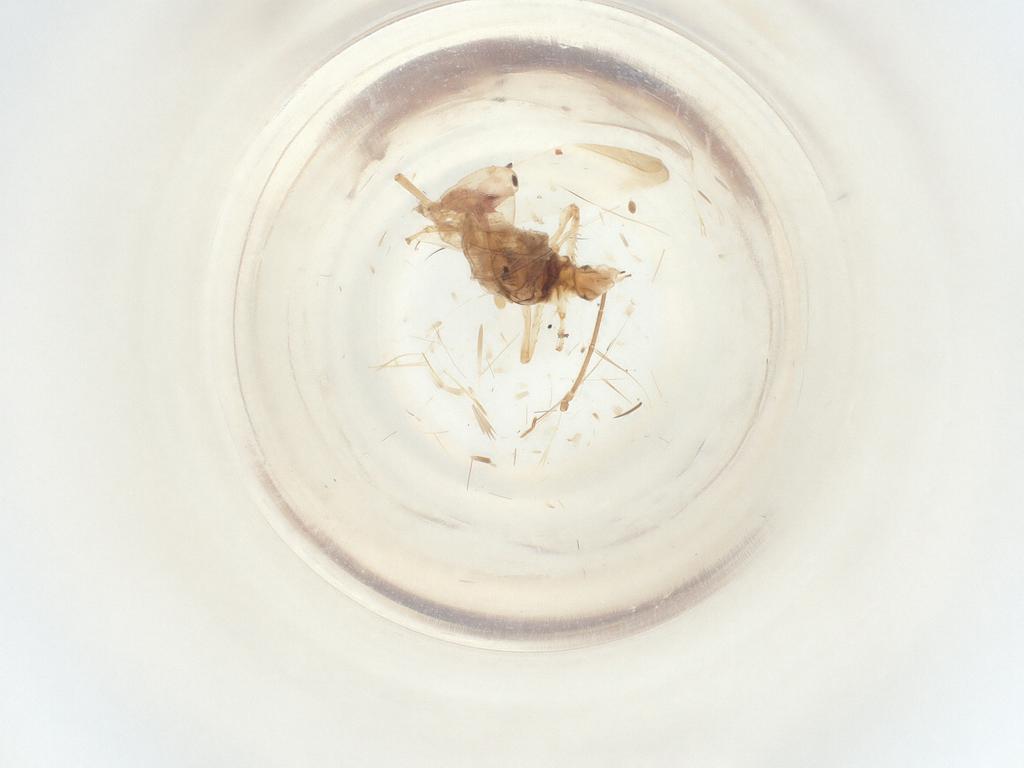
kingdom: Animalia
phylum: Arthropoda
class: Insecta
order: Hemiptera
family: Cicadellidae
